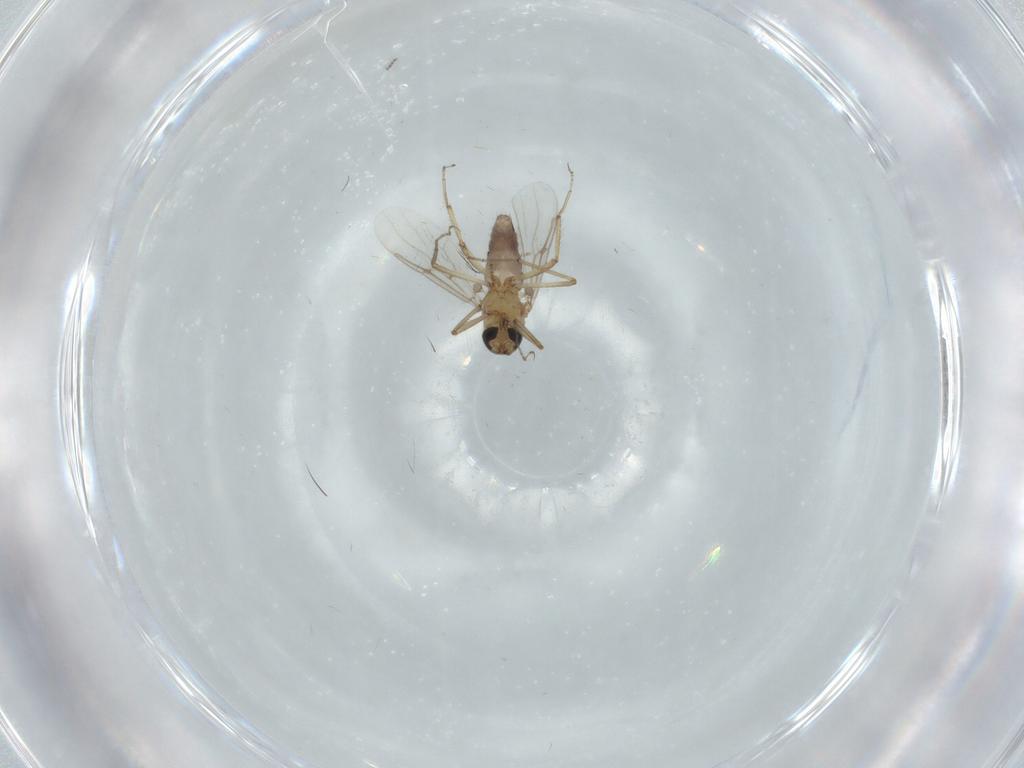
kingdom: Animalia
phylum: Arthropoda
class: Insecta
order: Diptera
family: Ceratopogonidae
